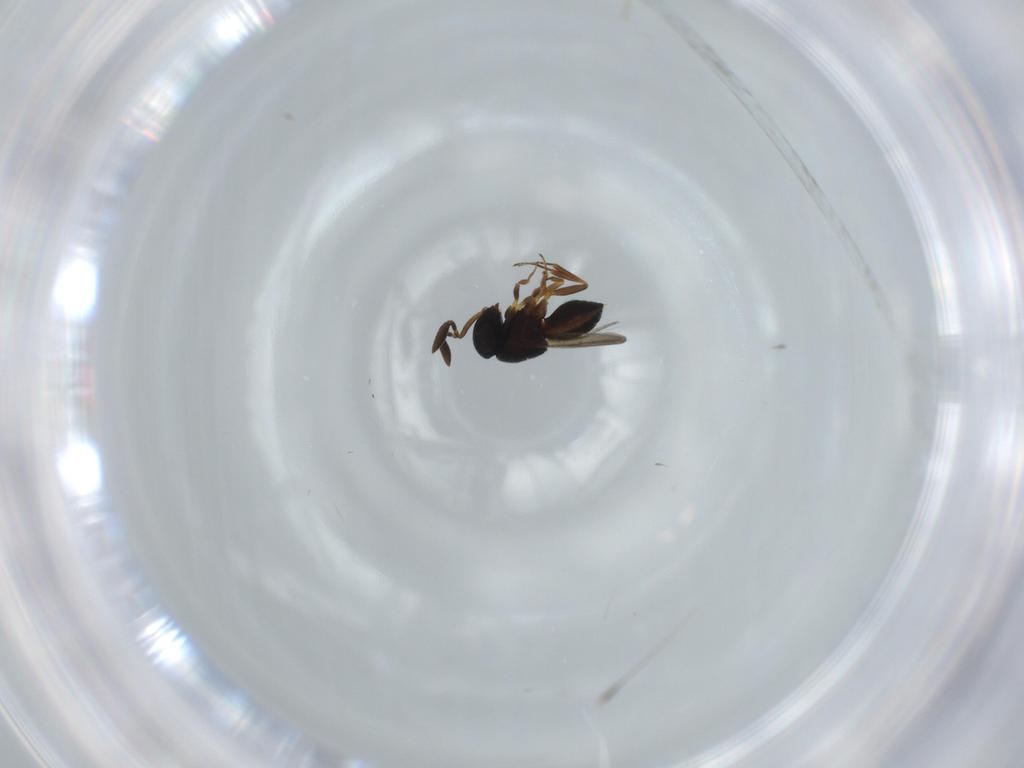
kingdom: Animalia
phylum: Arthropoda
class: Insecta
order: Hymenoptera
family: Scelionidae
